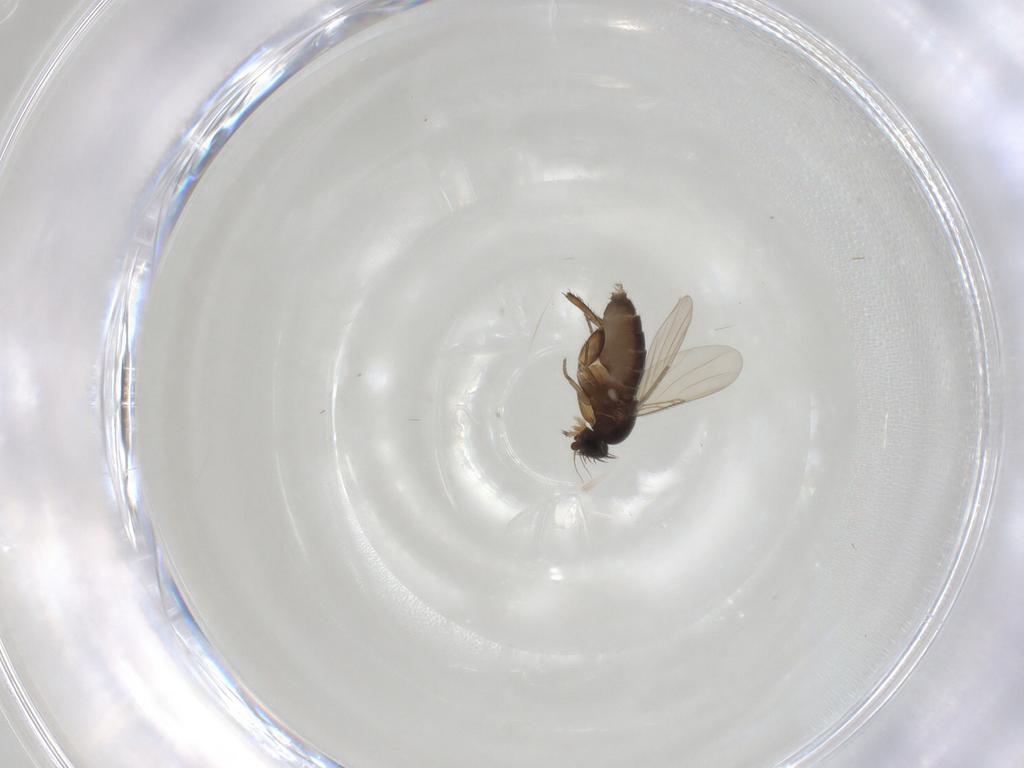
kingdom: Animalia
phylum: Arthropoda
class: Insecta
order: Diptera
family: Phoridae
